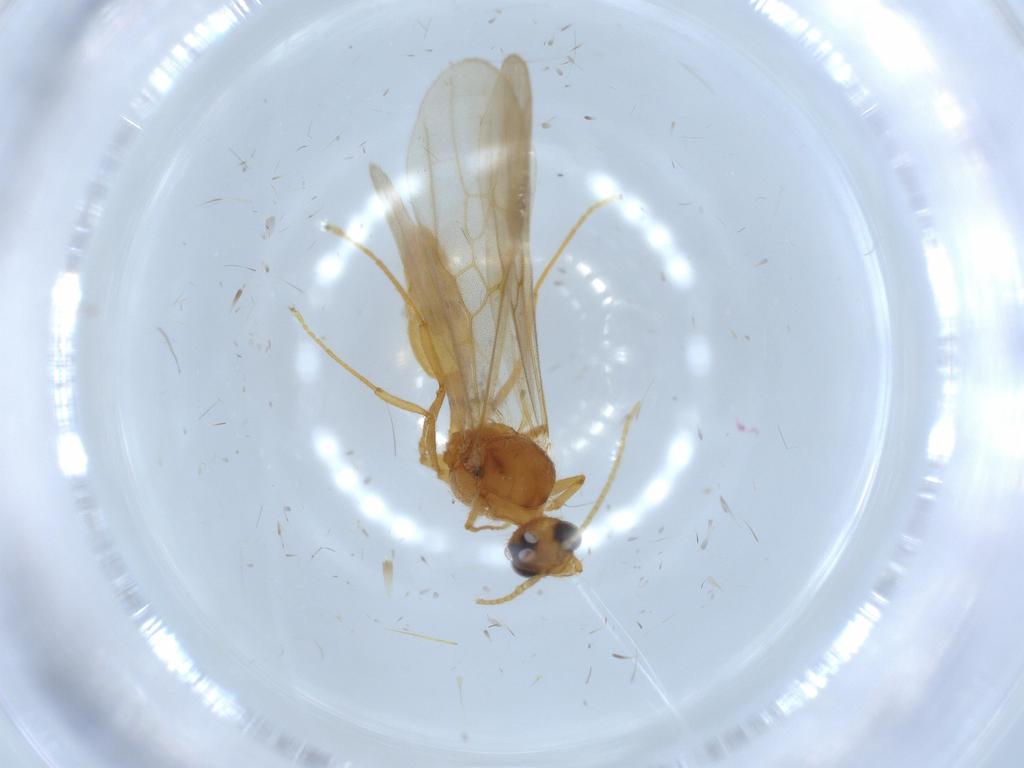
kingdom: Animalia
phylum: Arthropoda
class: Insecta
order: Hymenoptera
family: Formicidae
